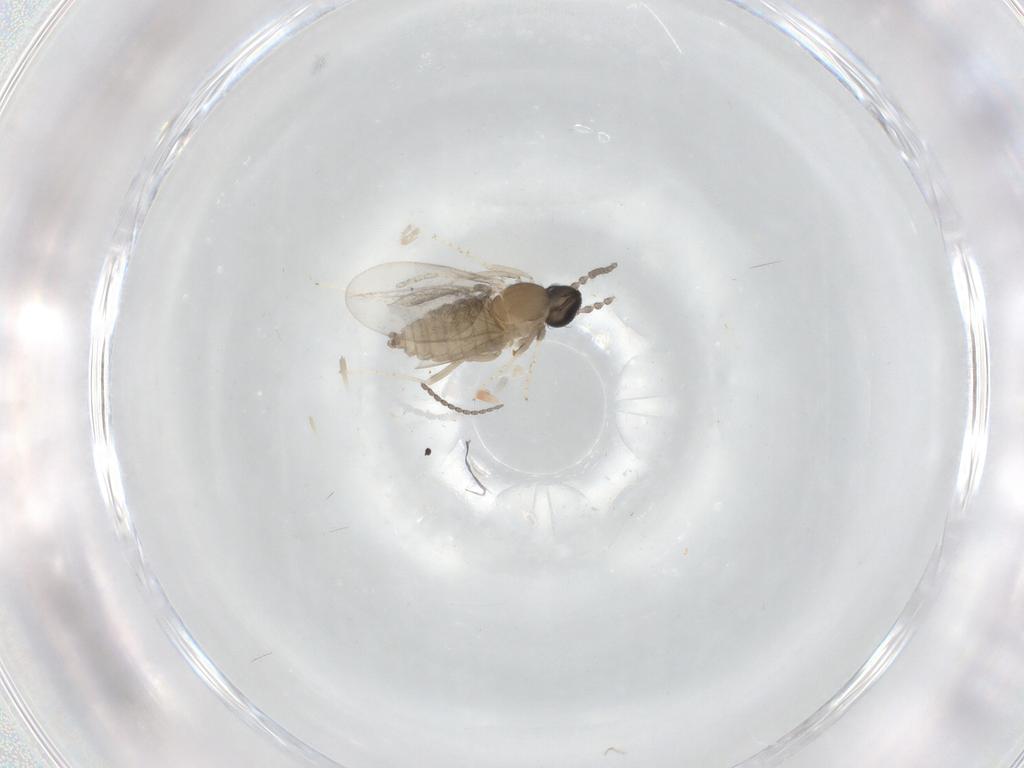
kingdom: Animalia
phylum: Arthropoda
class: Insecta
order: Diptera
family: Cecidomyiidae
